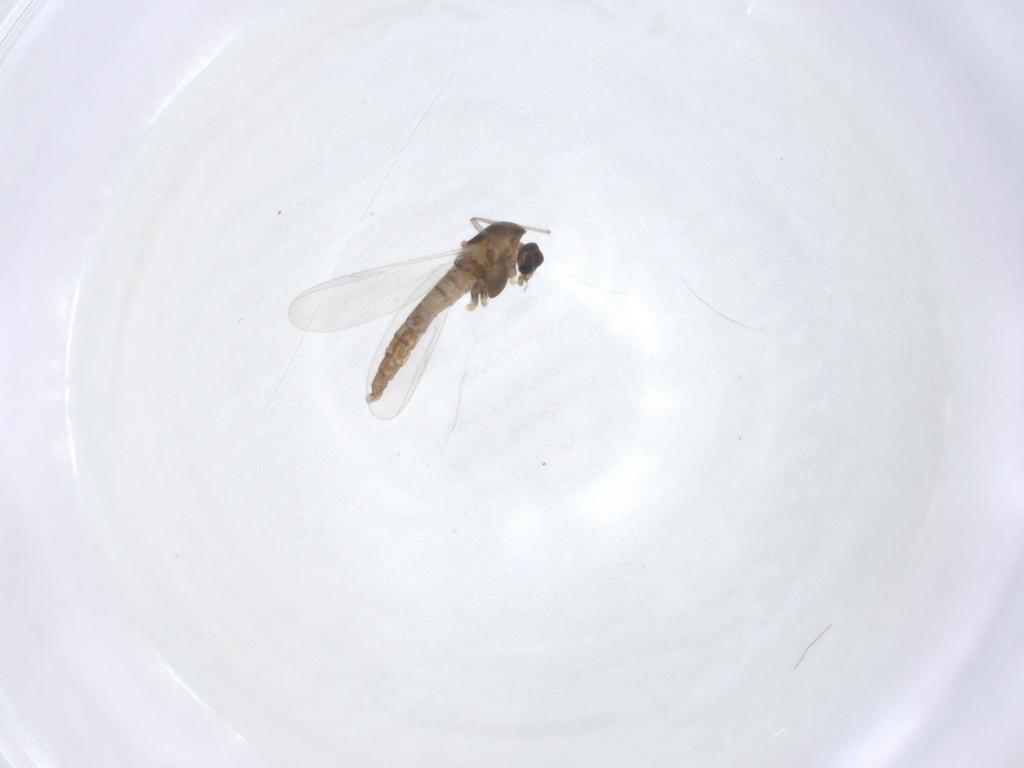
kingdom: Animalia
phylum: Arthropoda
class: Insecta
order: Diptera
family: Chironomidae
